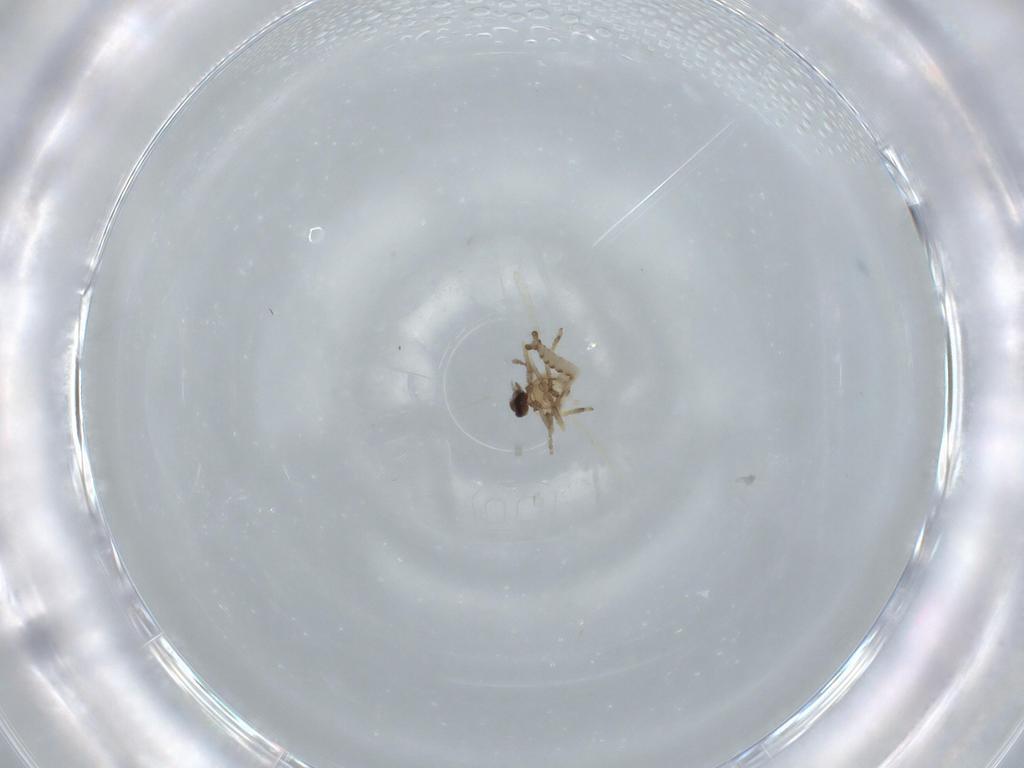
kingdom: Animalia
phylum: Arthropoda
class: Insecta
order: Diptera
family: Ceratopogonidae
